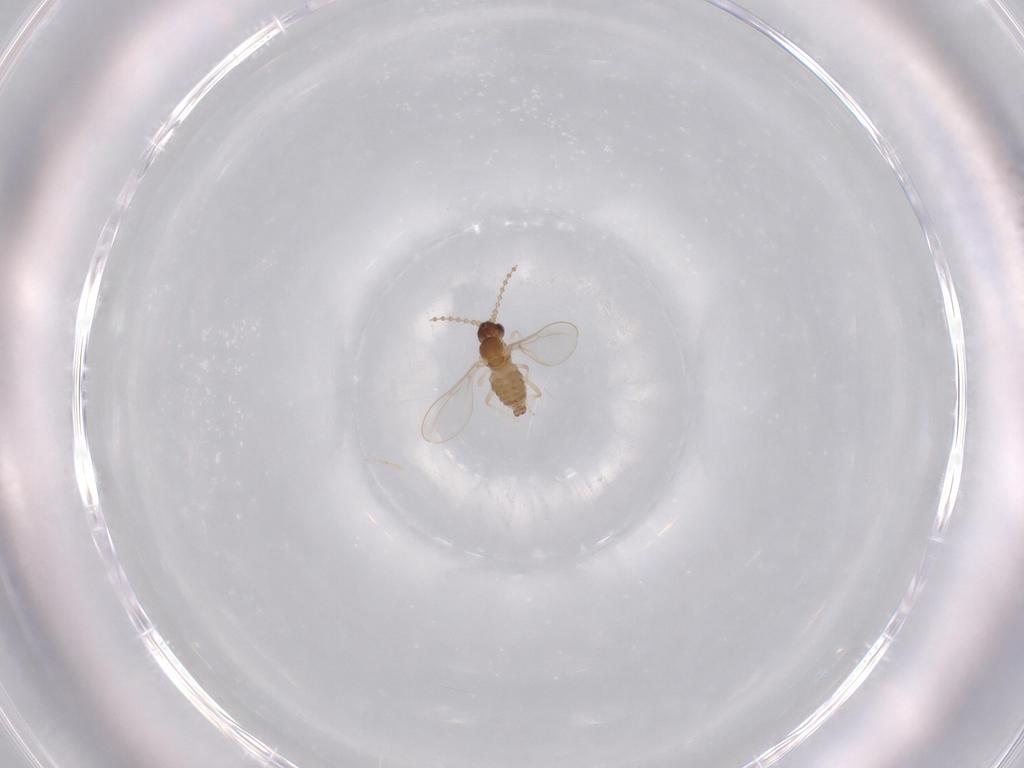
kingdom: Animalia
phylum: Arthropoda
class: Insecta
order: Diptera
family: Cecidomyiidae
